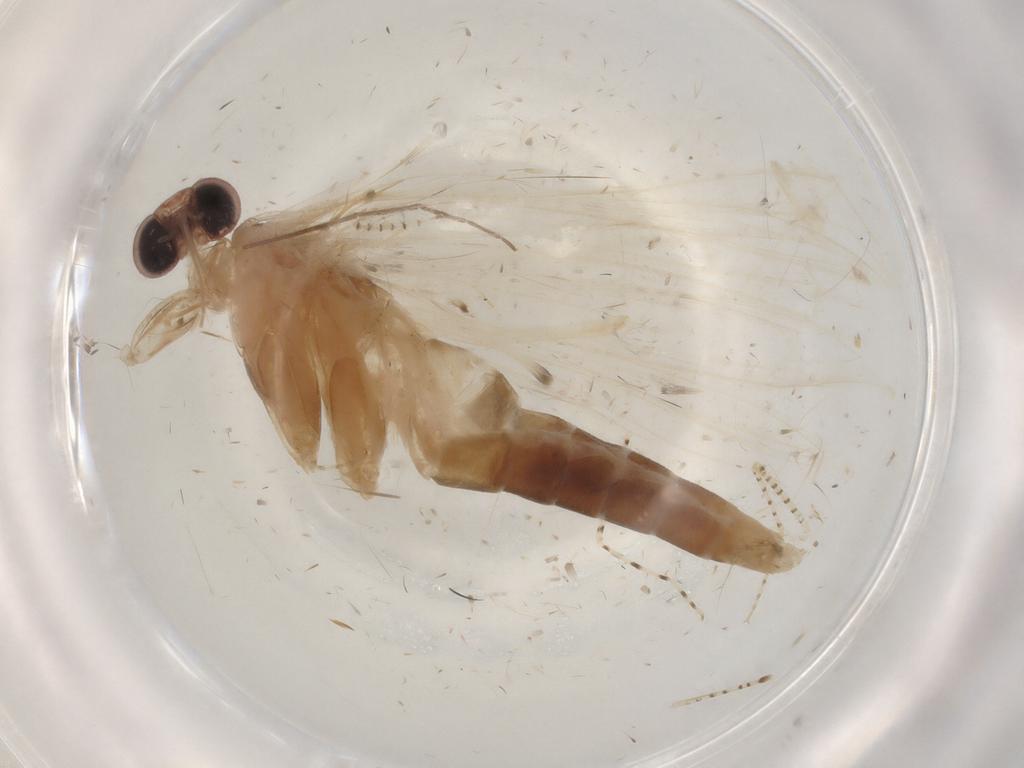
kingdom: Animalia
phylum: Arthropoda
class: Insecta
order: Lepidoptera
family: Crambidae
